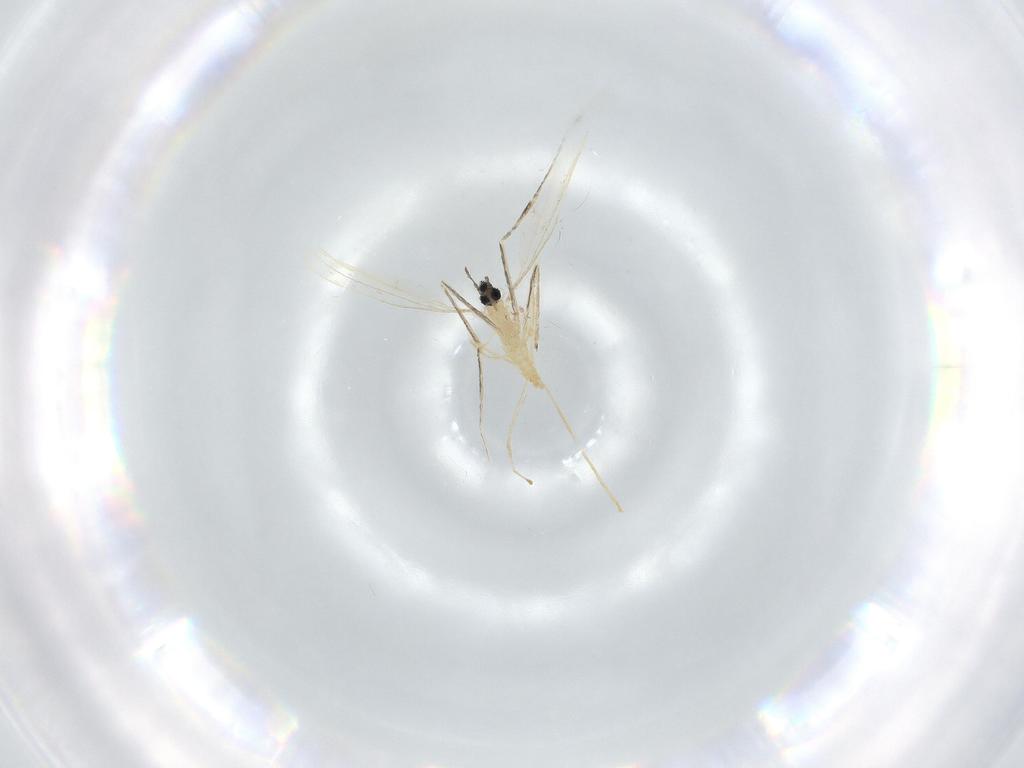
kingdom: Animalia
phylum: Arthropoda
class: Insecta
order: Diptera
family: Cecidomyiidae
